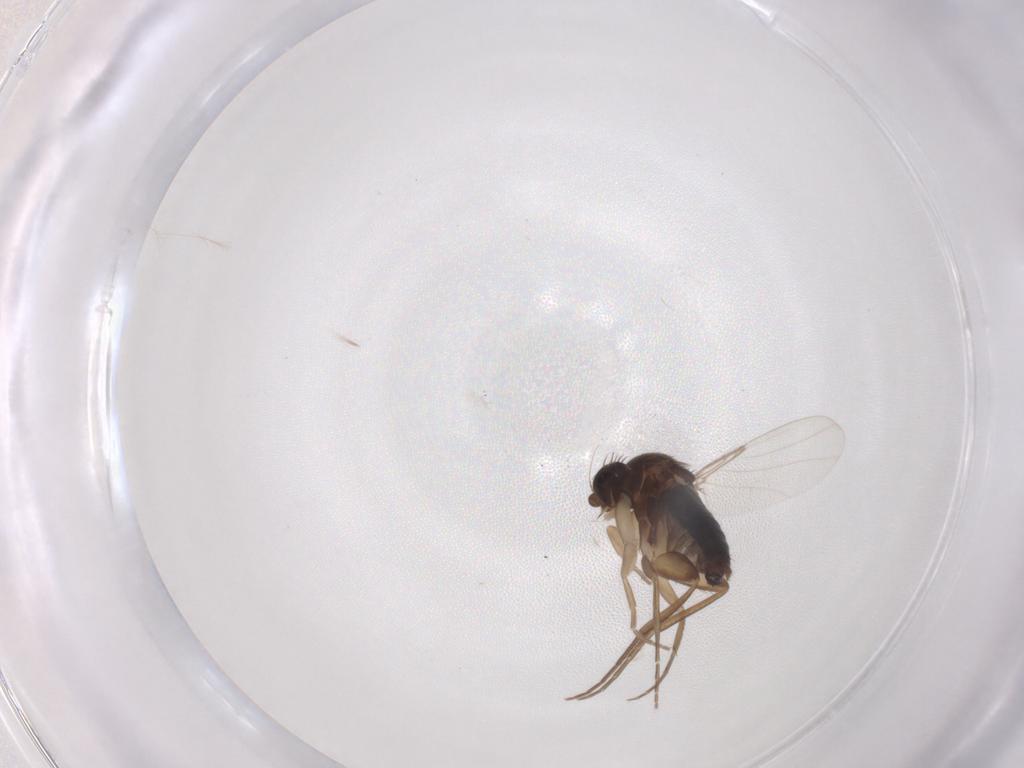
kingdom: Animalia
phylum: Arthropoda
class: Insecta
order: Diptera
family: Phoridae
